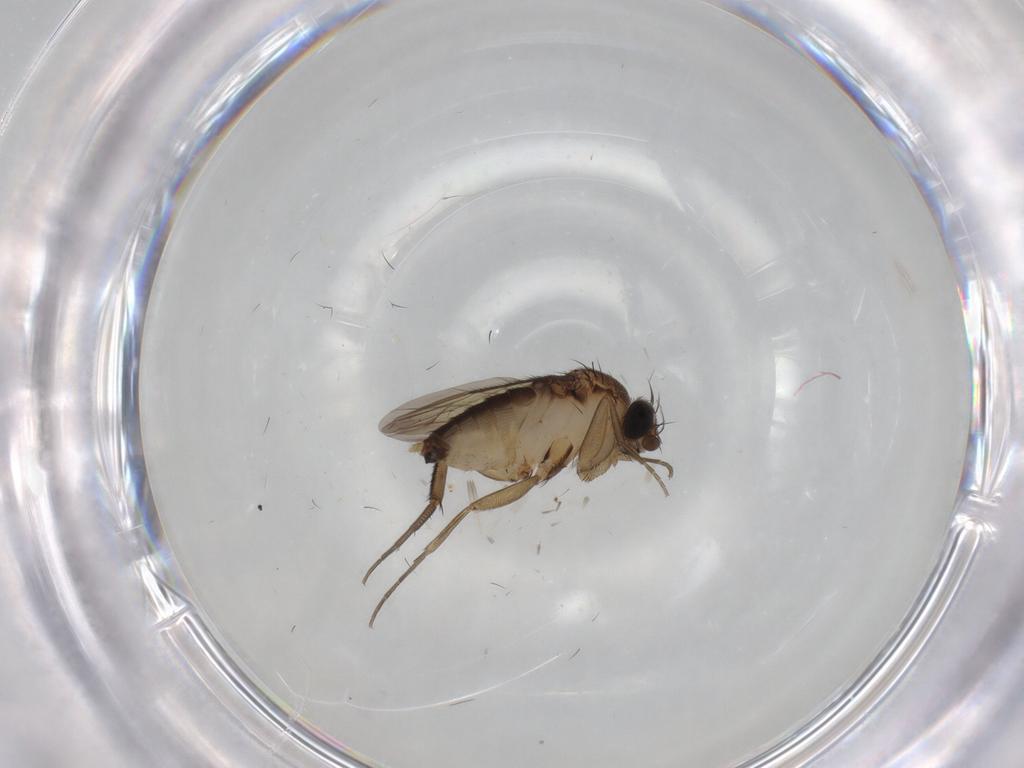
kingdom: Animalia
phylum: Arthropoda
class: Insecta
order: Diptera
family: Phoridae
